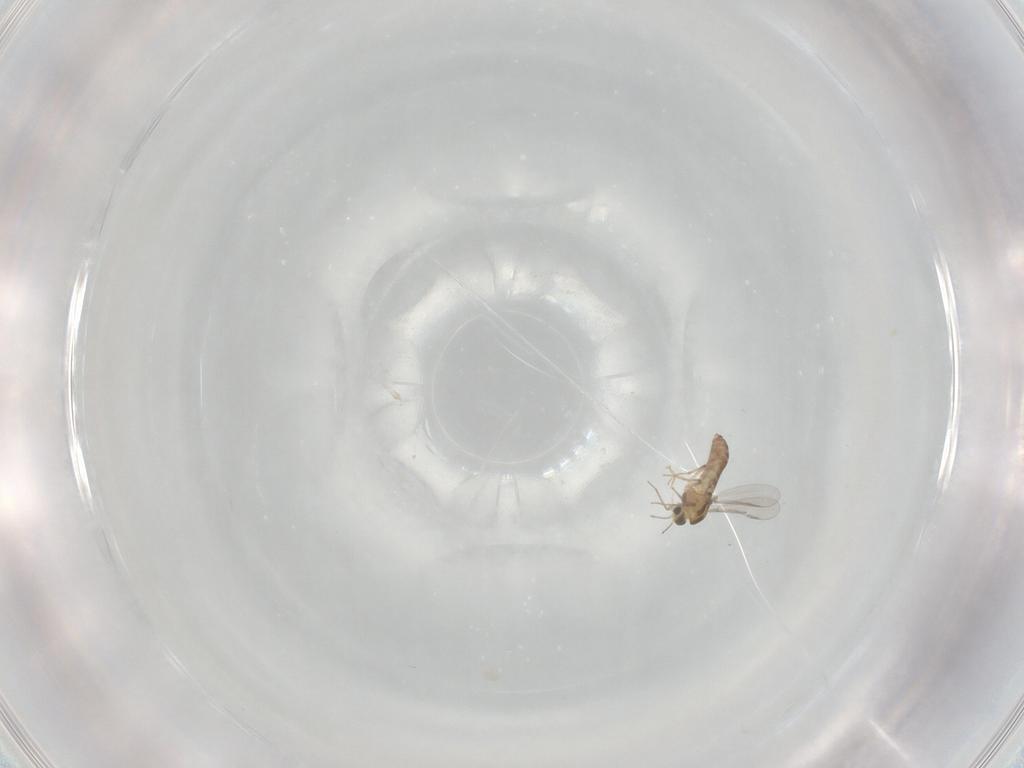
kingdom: Animalia
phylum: Arthropoda
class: Insecta
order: Diptera
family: Chironomidae
